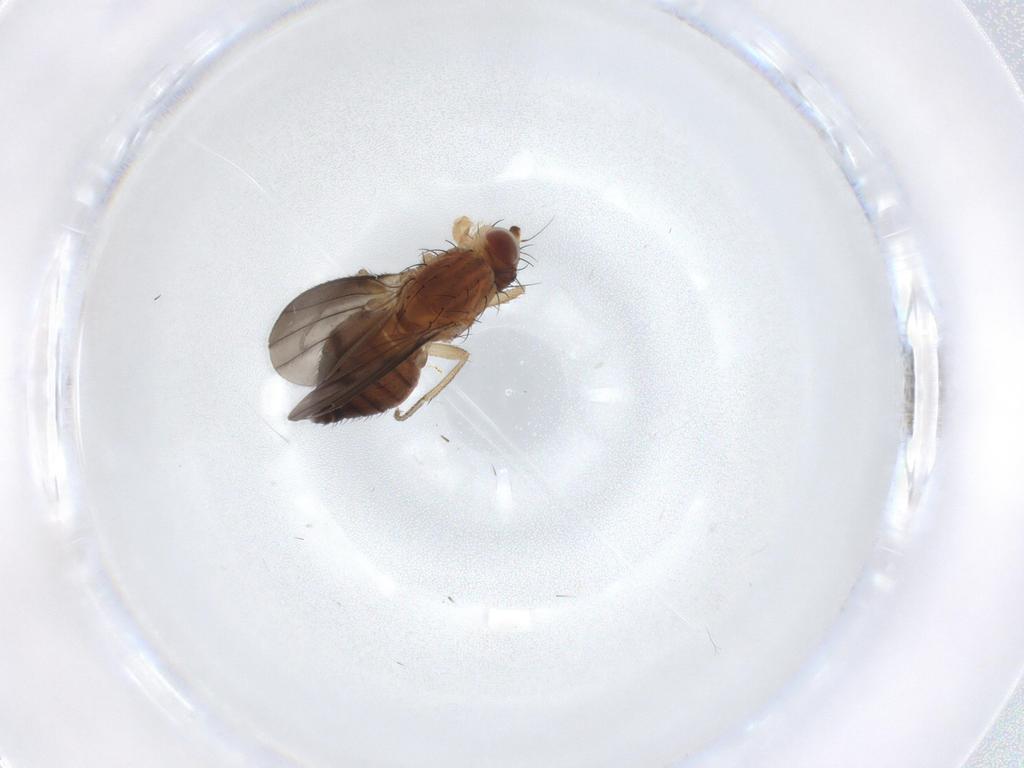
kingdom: Animalia
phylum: Arthropoda
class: Insecta
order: Diptera
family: Heleomyzidae
